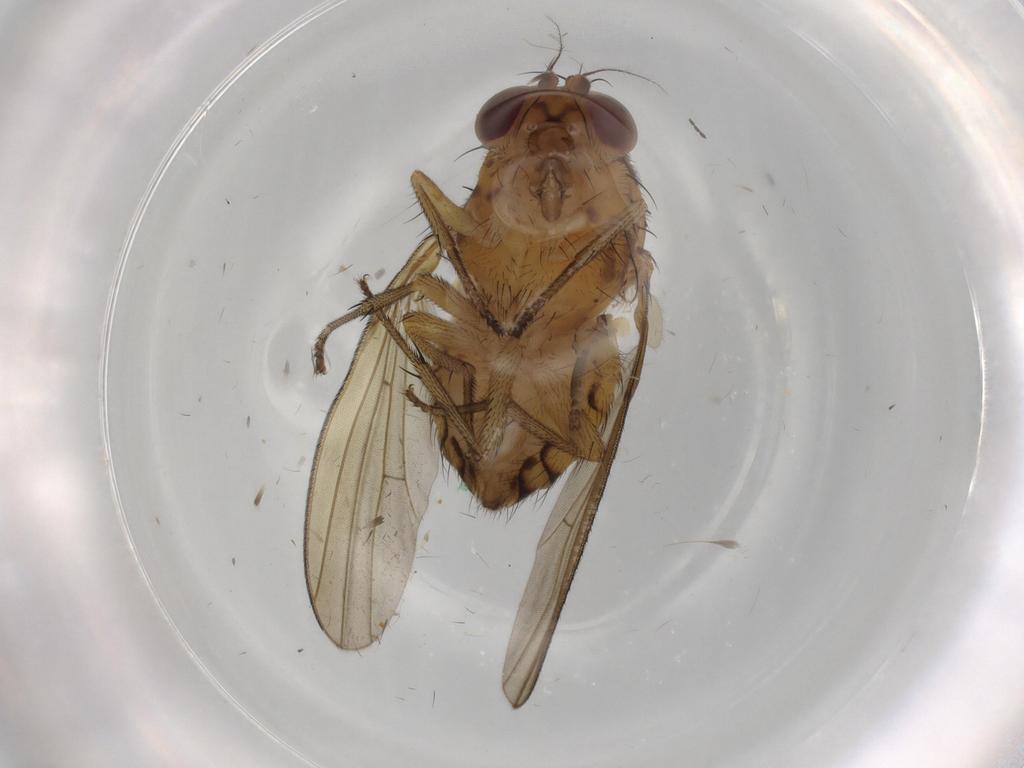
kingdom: Animalia
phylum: Arthropoda
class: Insecta
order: Diptera
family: Chironomidae
